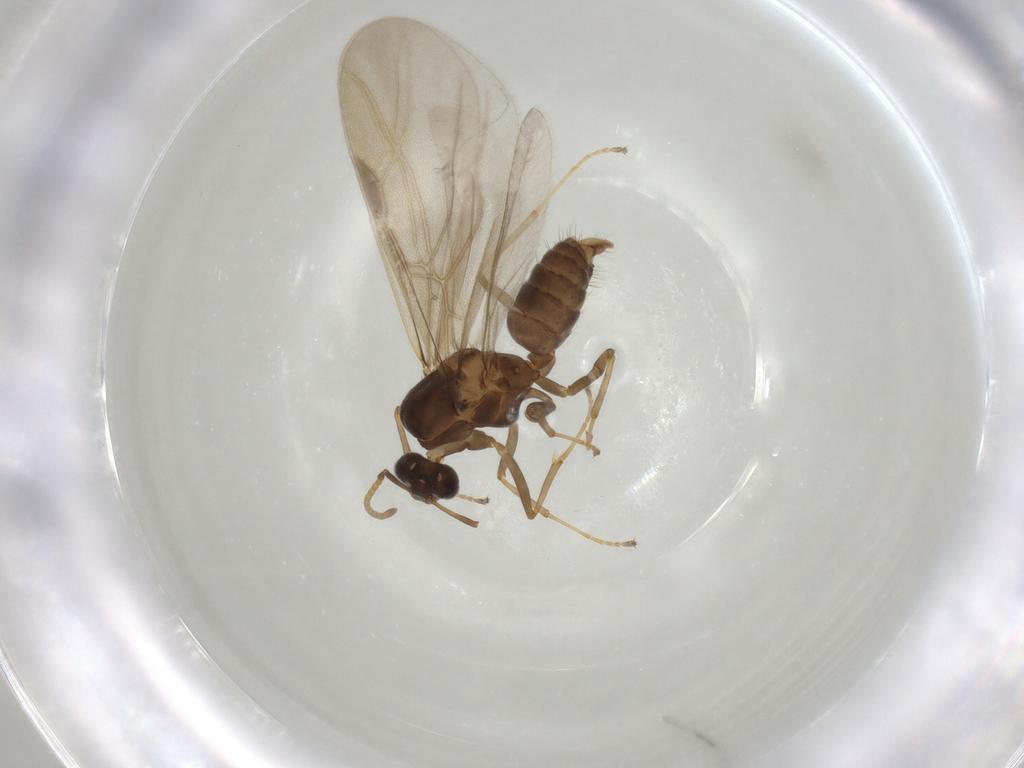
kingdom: Animalia
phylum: Arthropoda
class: Insecta
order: Hymenoptera
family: Formicidae
